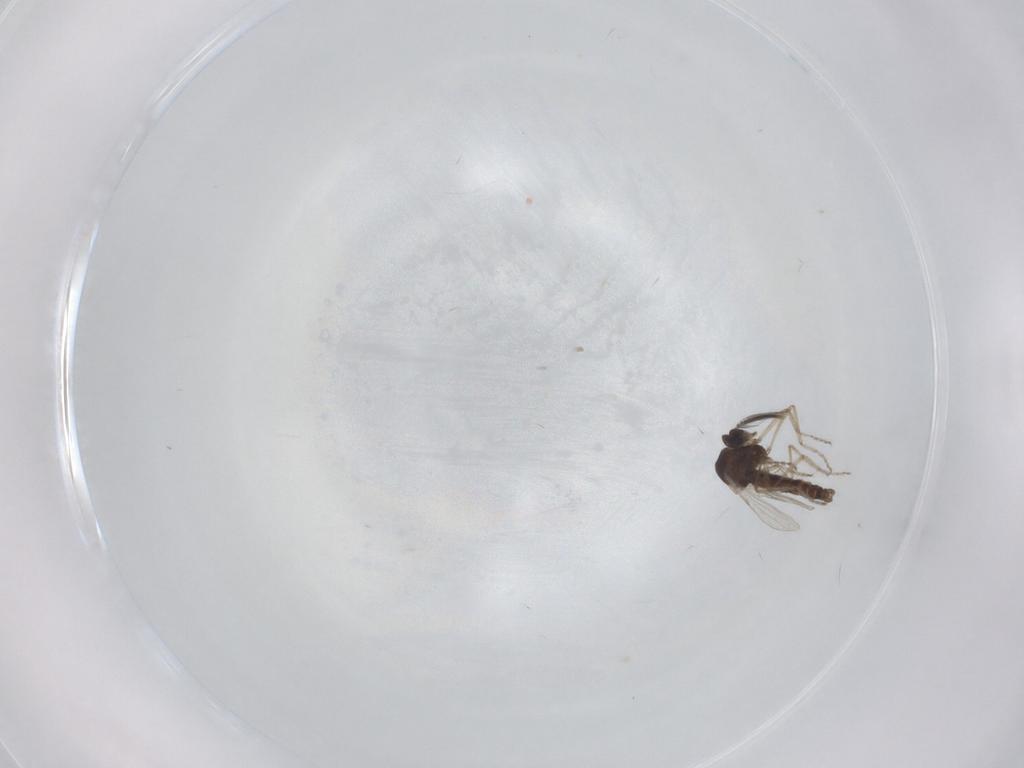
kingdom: Animalia
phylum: Arthropoda
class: Insecta
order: Diptera
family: Ceratopogonidae
